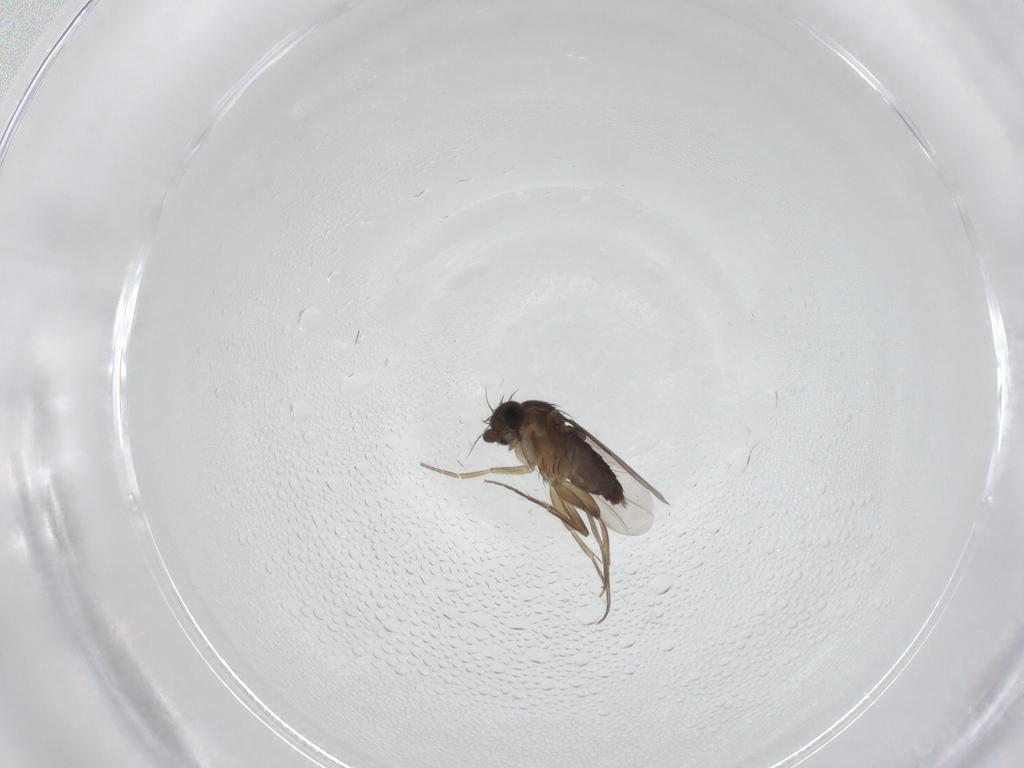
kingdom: Animalia
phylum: Arthropoda
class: Insecta
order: Diptera
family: Phoridae
